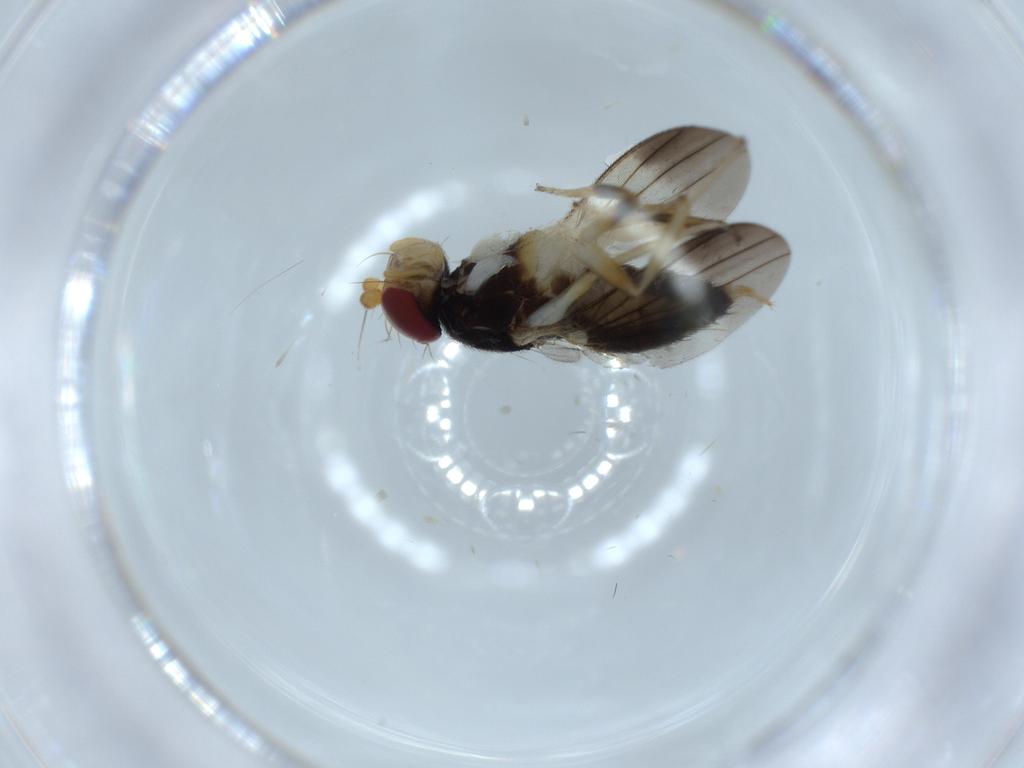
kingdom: Animalia
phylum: Arthropoda
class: Insecta
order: Diptera
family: Clusiidae
